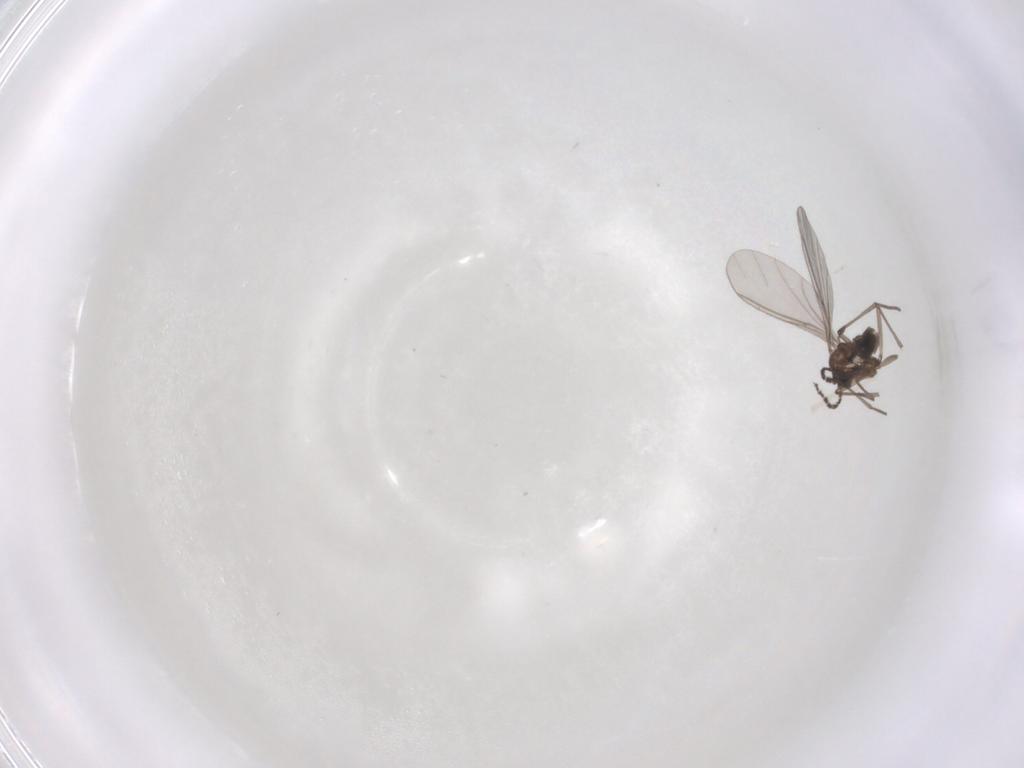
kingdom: Animalia
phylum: Arthropoda
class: Insecta
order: Diptera
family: Sciaridae
